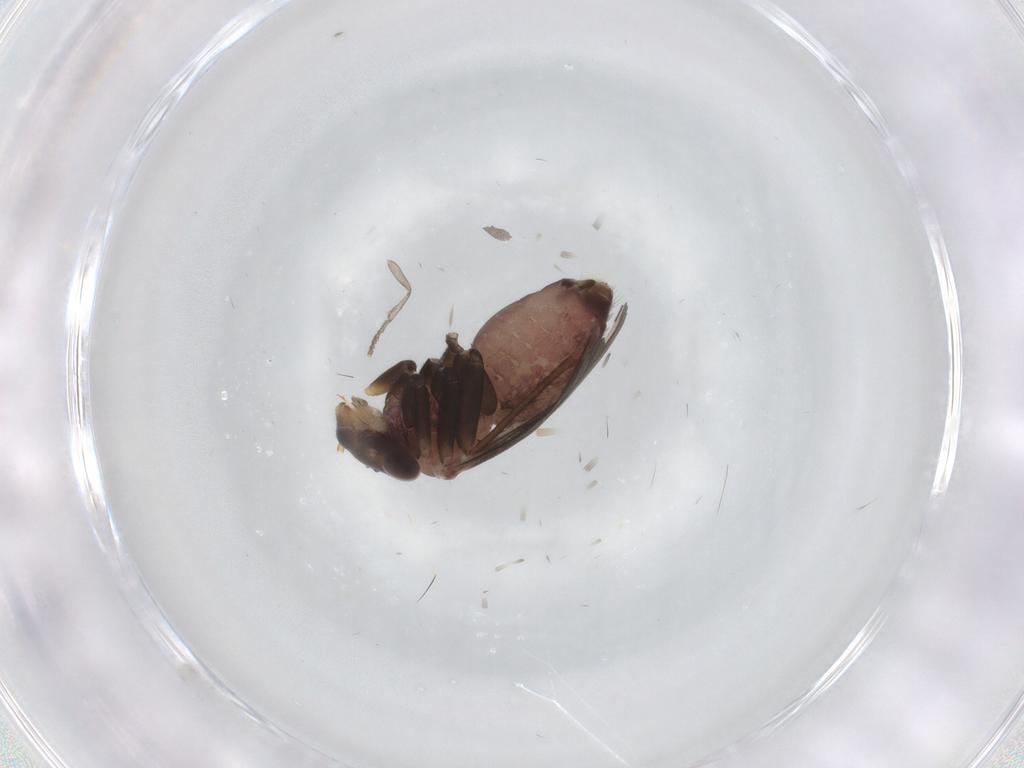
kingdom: Animalia
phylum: Arthropoda
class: Insecta
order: Psocodea
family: Lepidopsocidae
